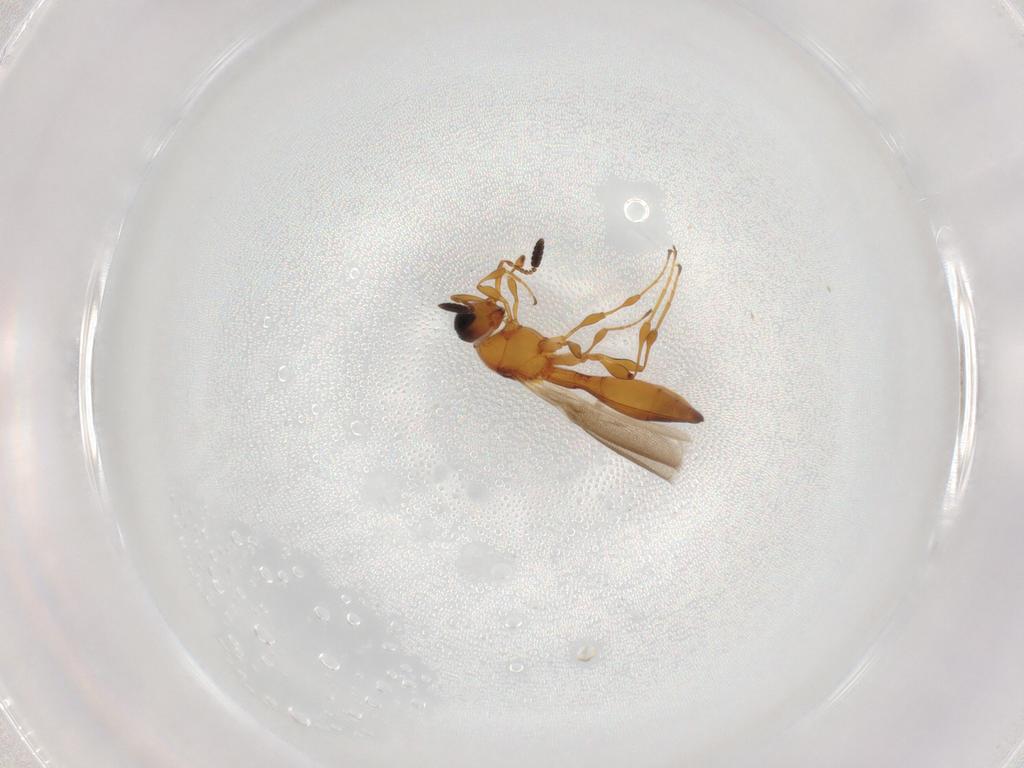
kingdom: Animalia
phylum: Arthropoda
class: Insecta
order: Hymenoptera
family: Scelionidae
